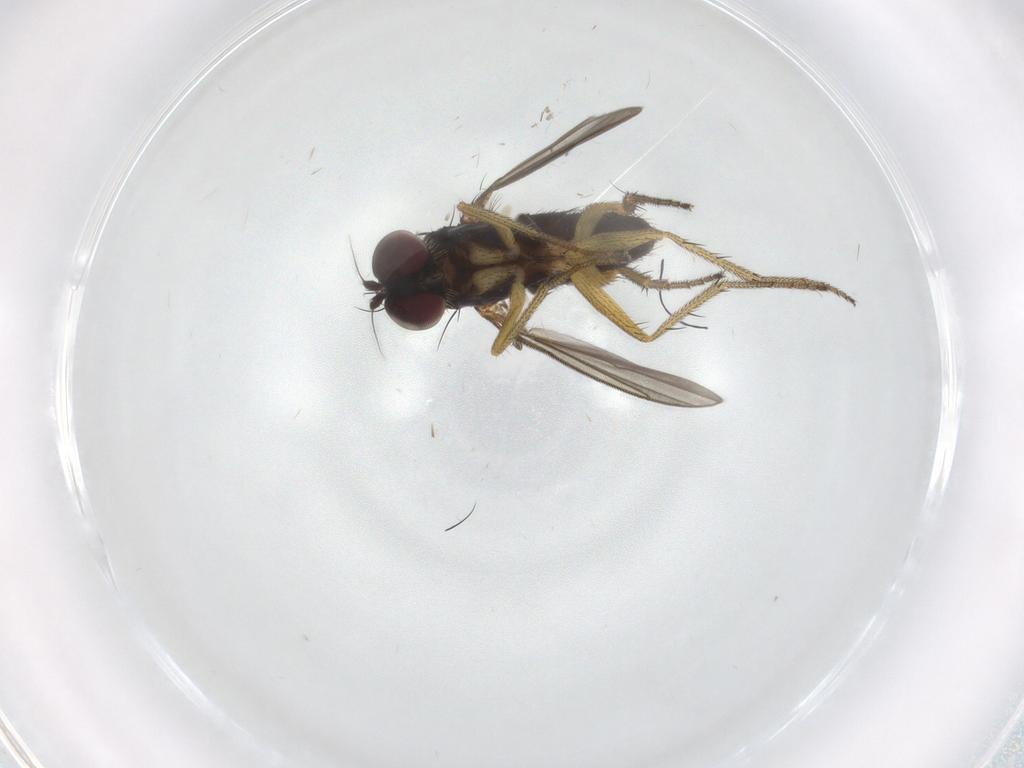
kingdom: Animalia
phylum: Arthropoda
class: Insecta
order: Diptera
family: Dolichopodidae
